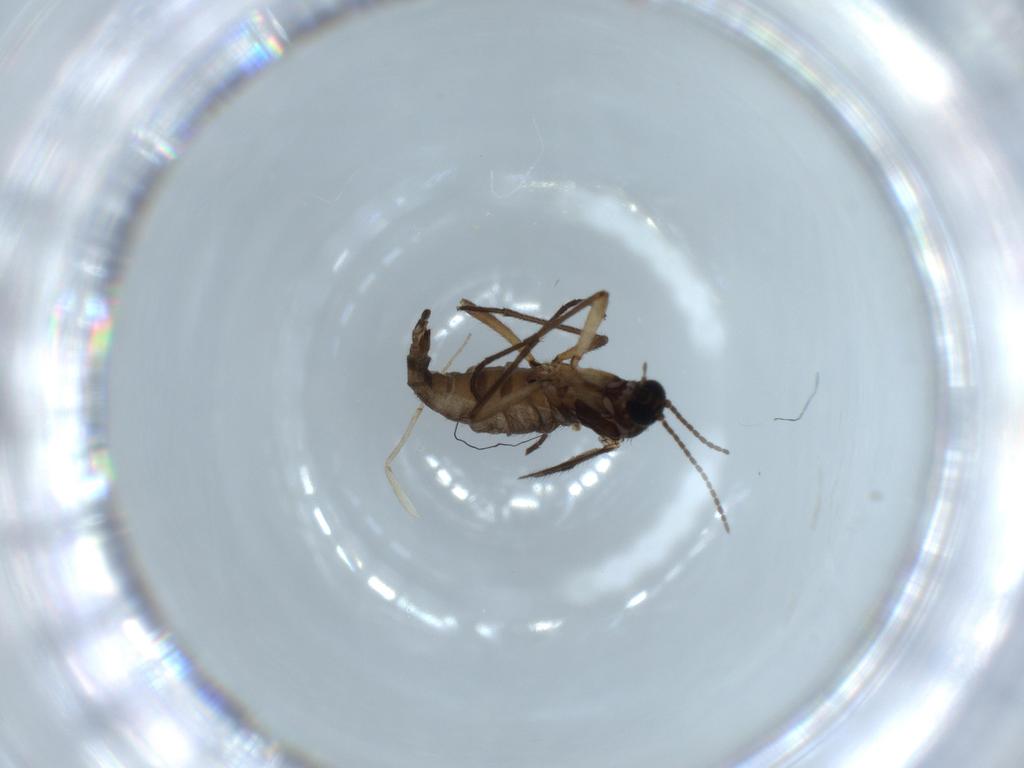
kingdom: Animalia
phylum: Arthropoda
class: Insecta
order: Diptera
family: Sciaridae
